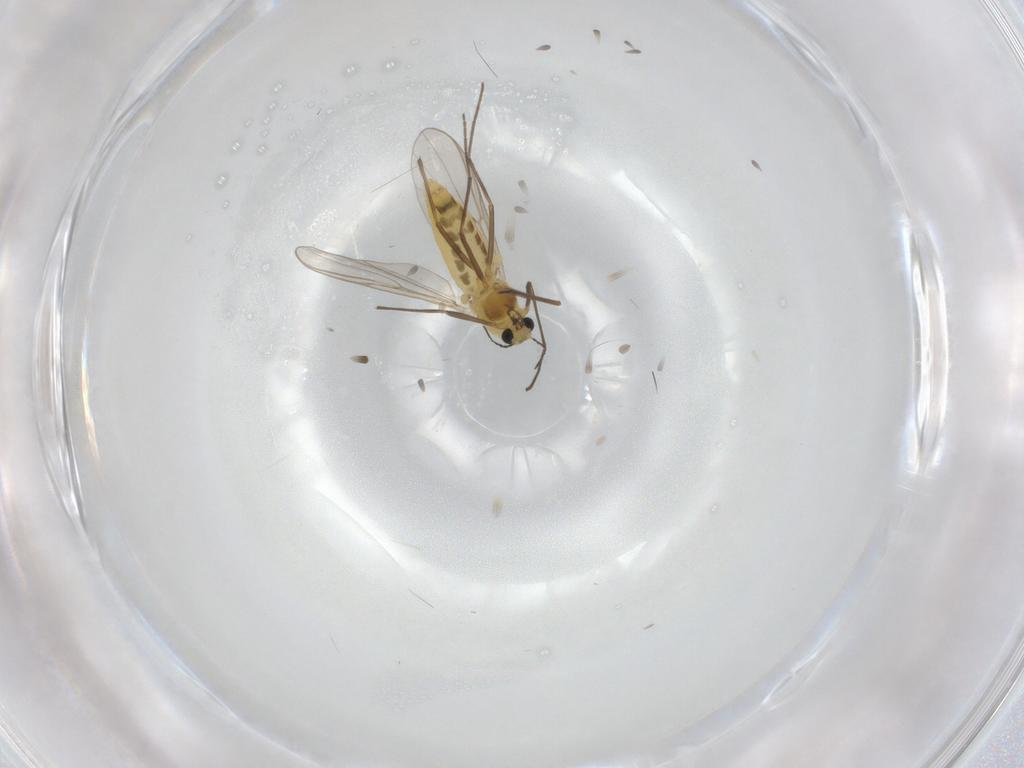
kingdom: Animalia
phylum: Arthropoda
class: Insecta
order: Diptera
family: Chironomidae
